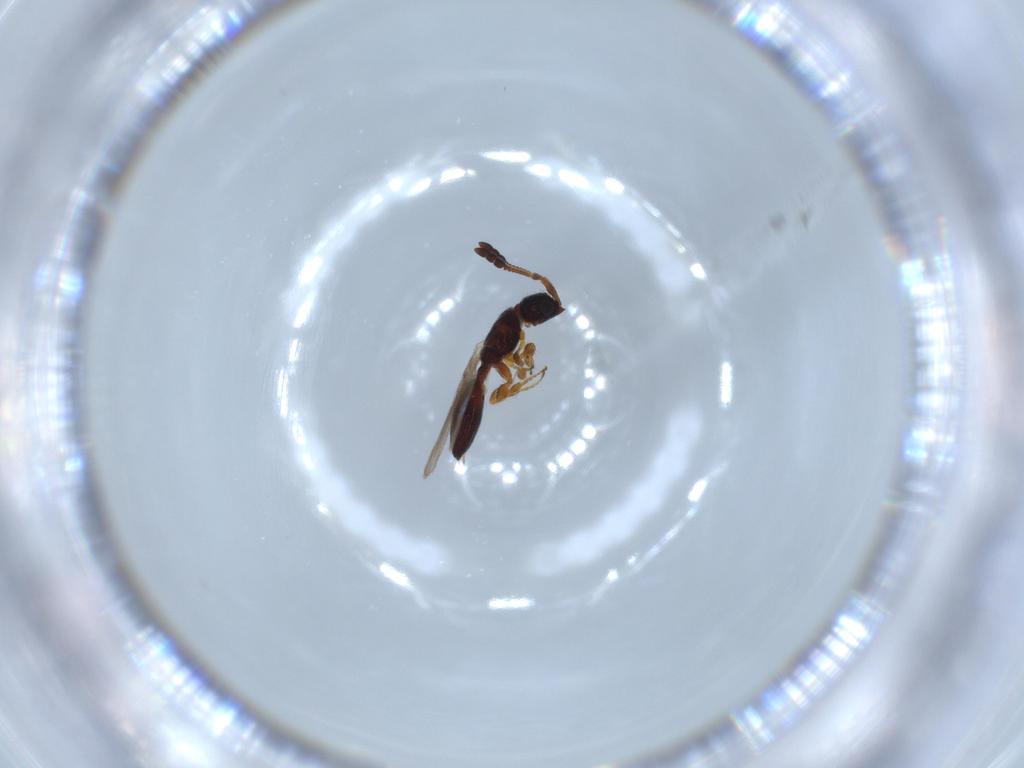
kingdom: Animalia
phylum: Arthropoda
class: Insecta
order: Hymenoptera
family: Diapriidae
